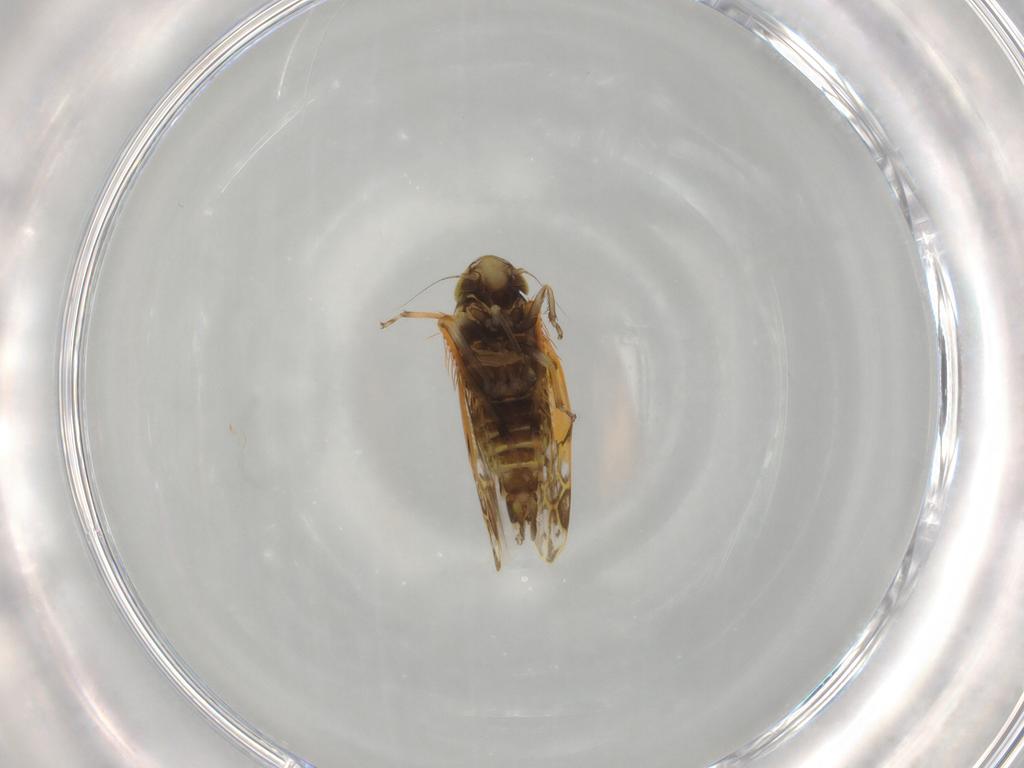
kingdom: Animalia
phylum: Arthropoda
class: Insecta
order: Hemiptera
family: Cicadellidae
